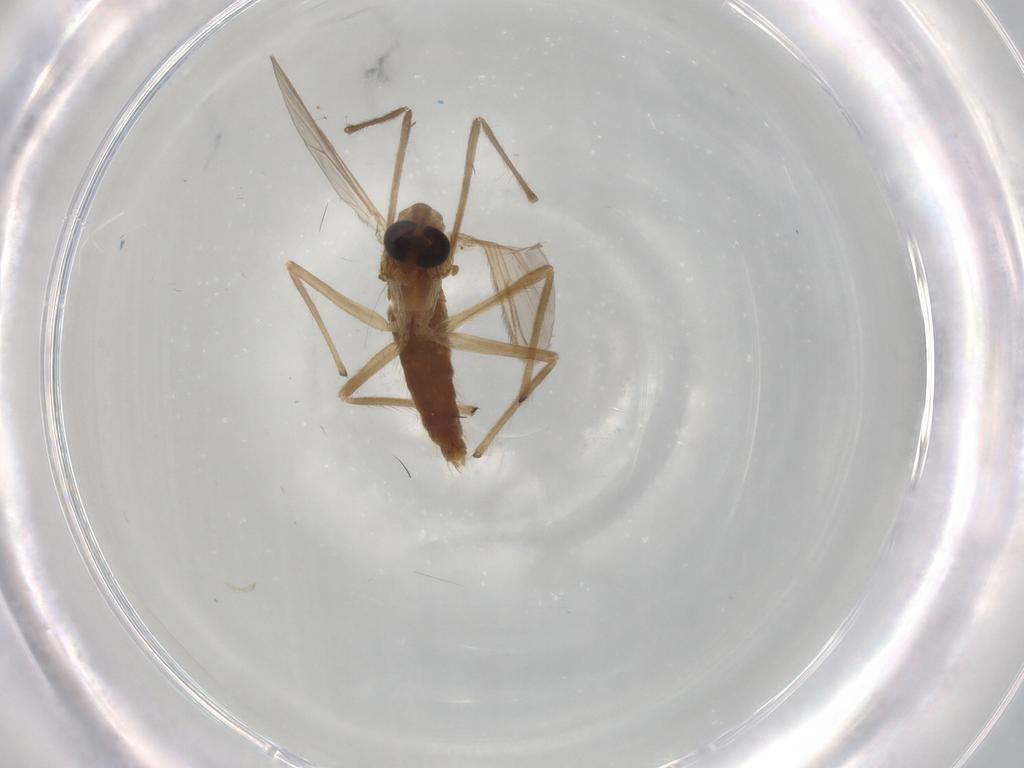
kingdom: Animalia
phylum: Arthropoda
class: Insecta
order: Diptera
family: Chironomidae
